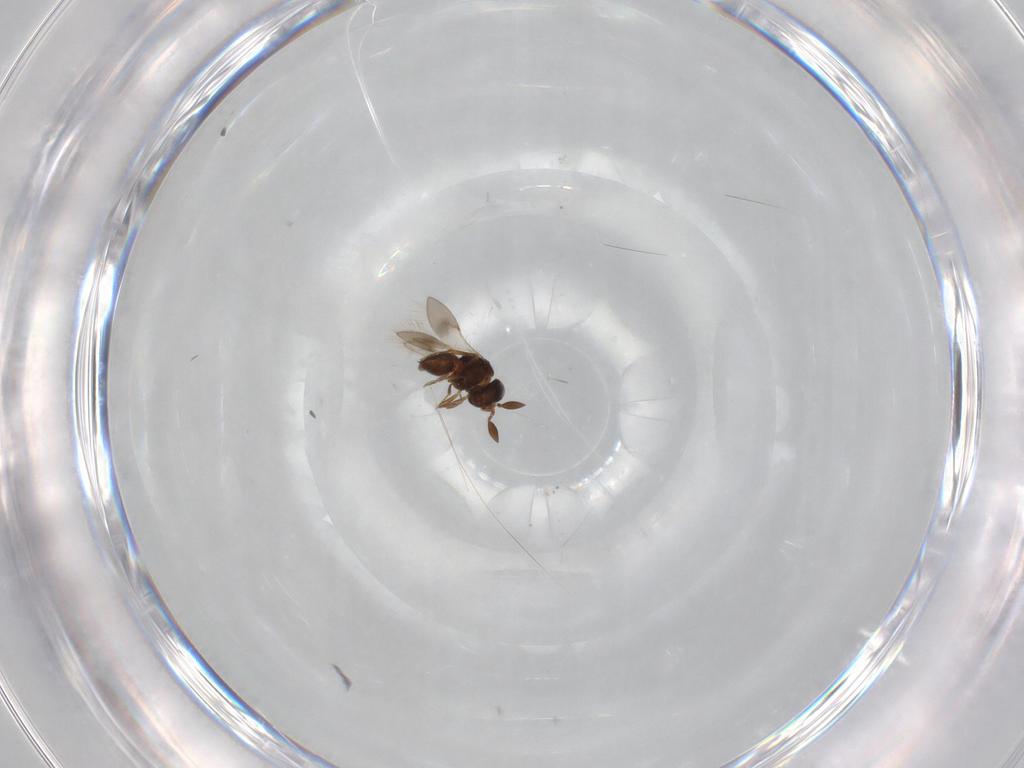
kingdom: Animalia
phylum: Arthropoda
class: Insecta
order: Hymenoptera
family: Scelionidae
